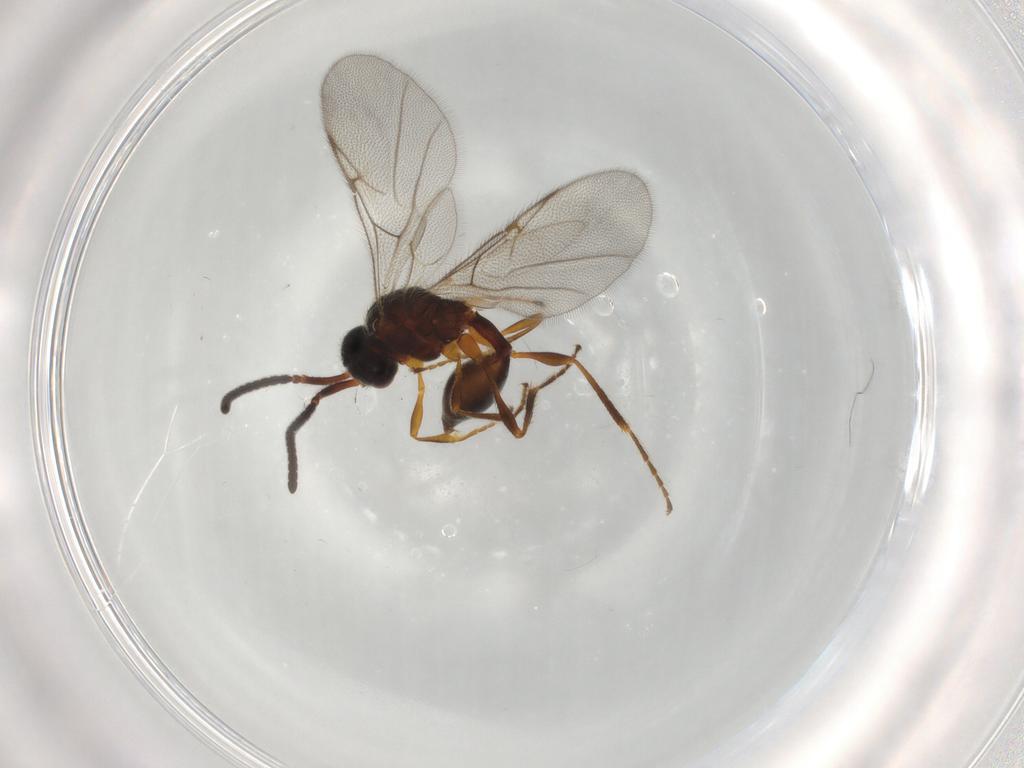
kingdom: Animalia
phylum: Arthropoda
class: Insecta
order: Hymenoptera
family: Diapriidae
